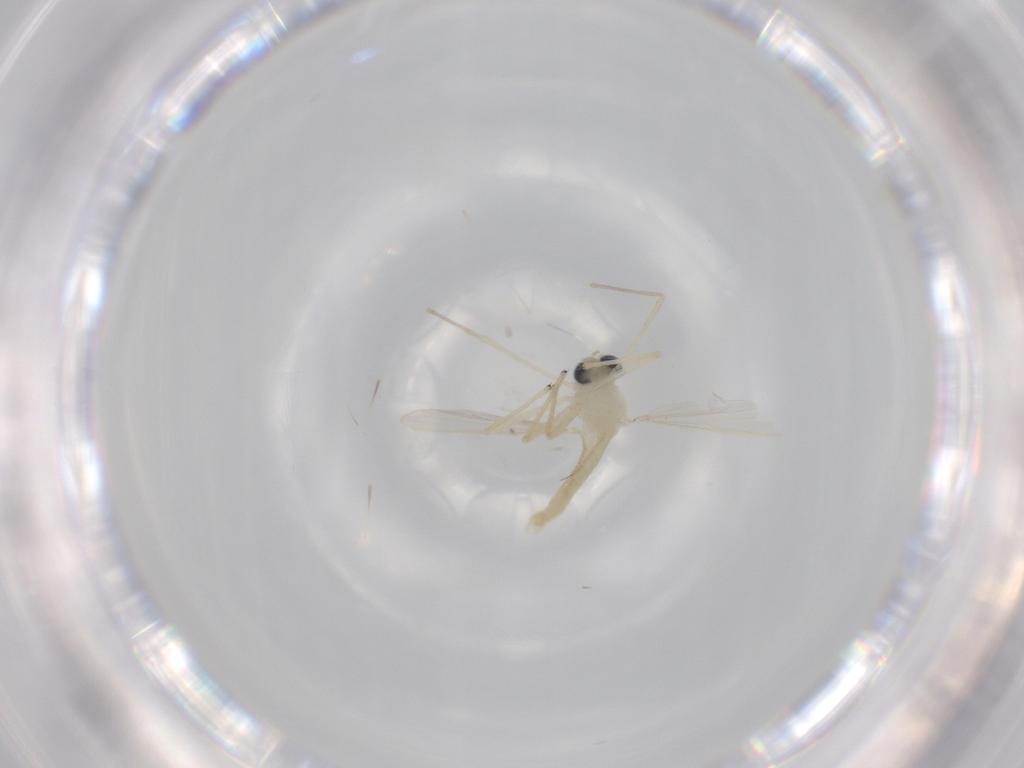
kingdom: Animalia
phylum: Arthropoda
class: Insecta
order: Diptera
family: Chironomidae
